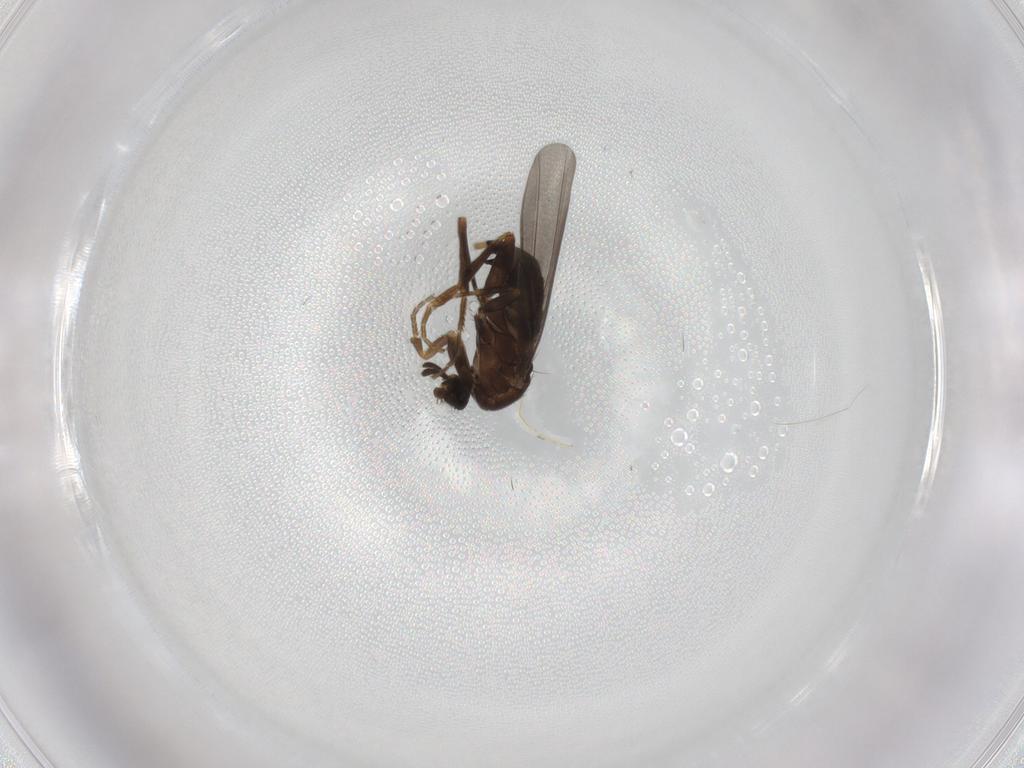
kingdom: Animalia
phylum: Arthropoda
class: Insecta
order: Diptera
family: Phoridae
